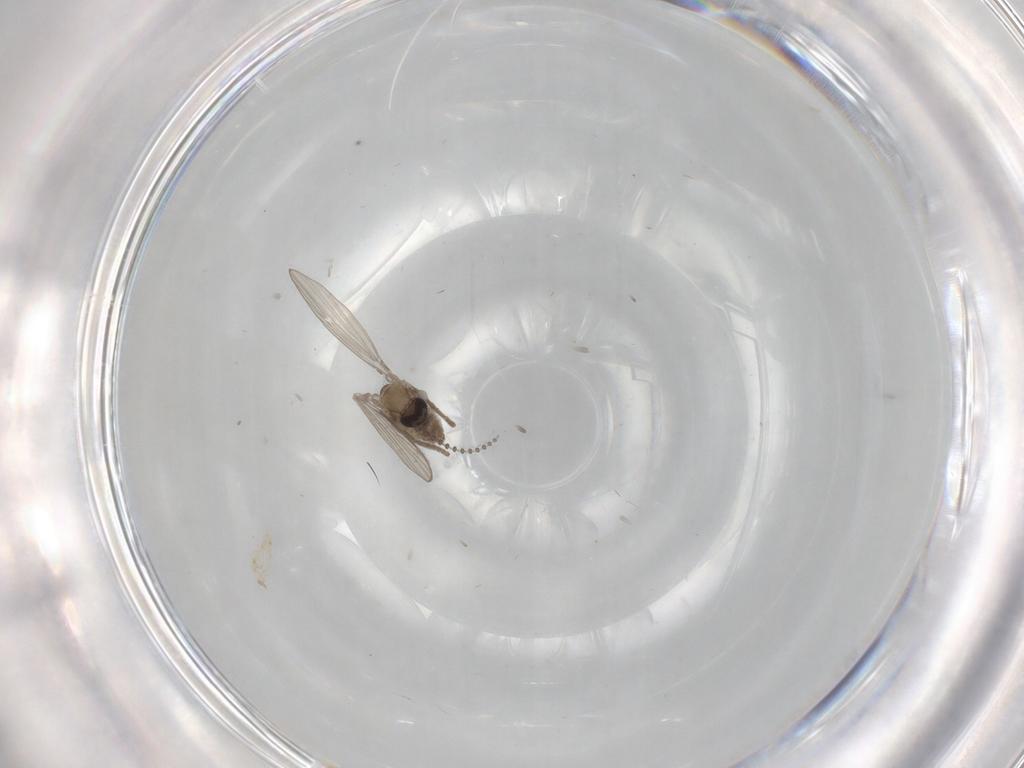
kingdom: Animalia
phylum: Arthropoda
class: Insecta
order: Diptera
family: Psychodidae
